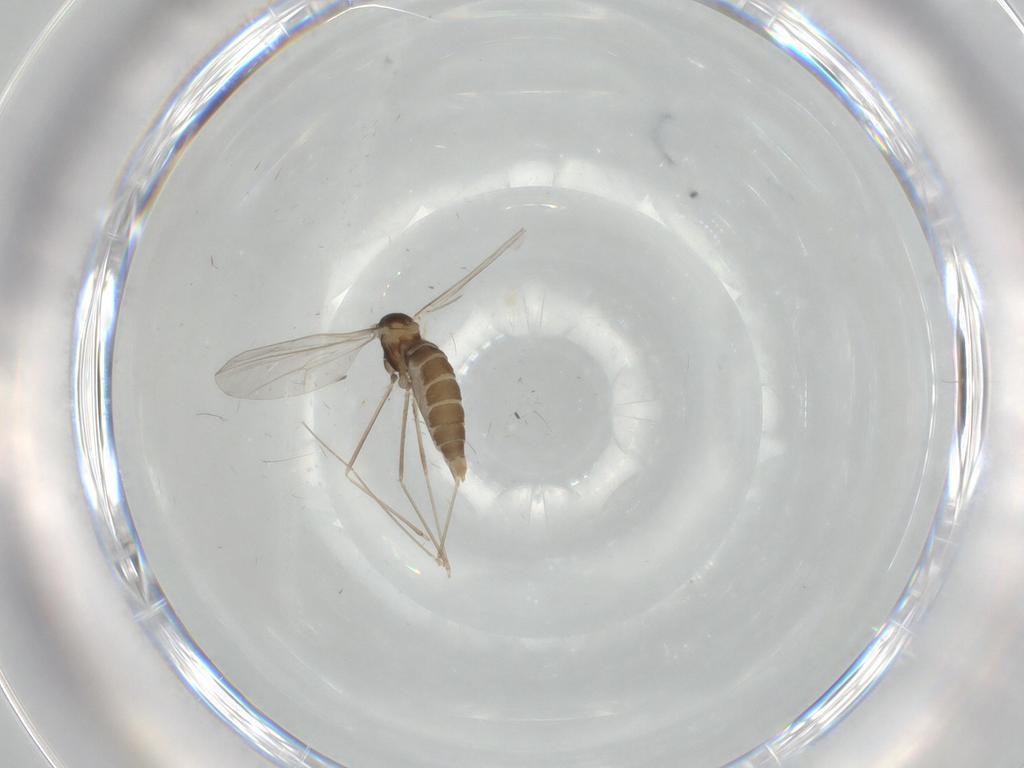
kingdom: Animalia
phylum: Arthropoda
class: Insecta
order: Diptera
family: Cecidomyiidae
